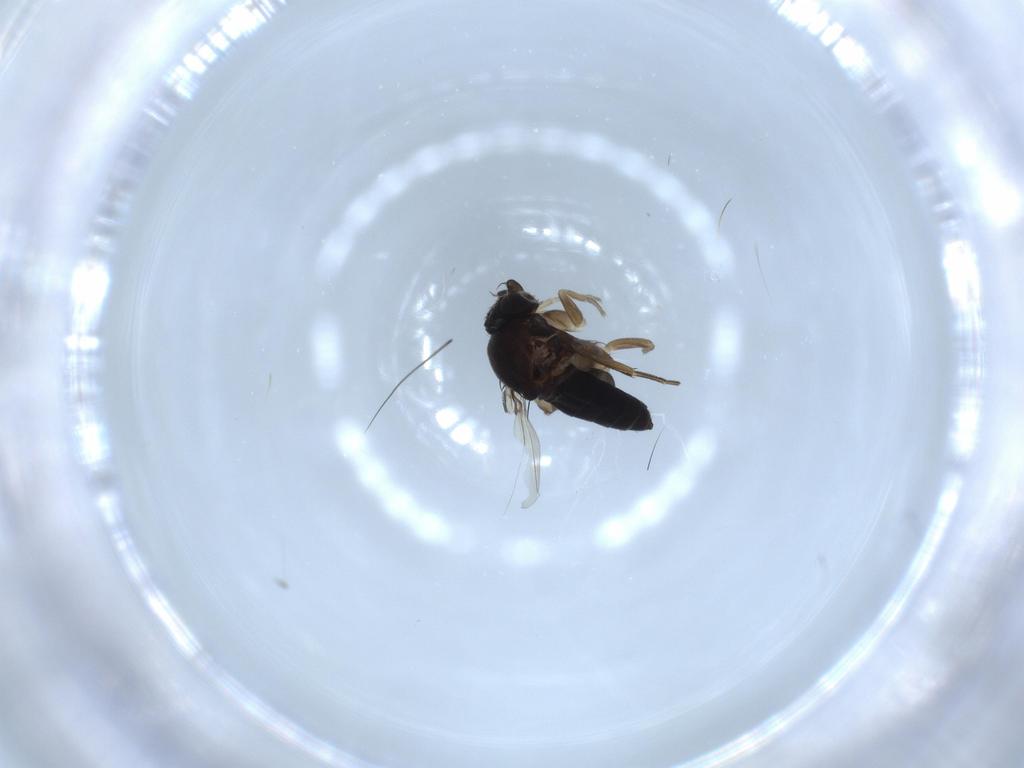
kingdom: Animalia
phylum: Arthropoda
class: Insecta
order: Diptera
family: Phoridae
